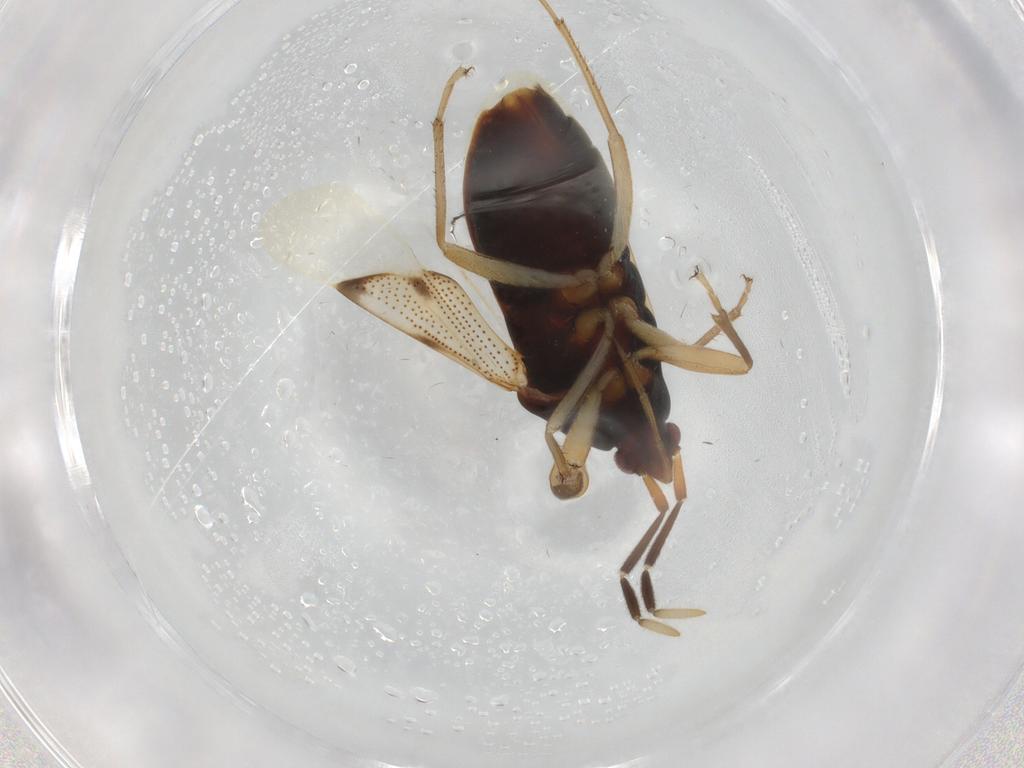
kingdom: Animalia
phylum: Arthropoda
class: Insecta
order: Hemiptera
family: Rhyparochromidae
